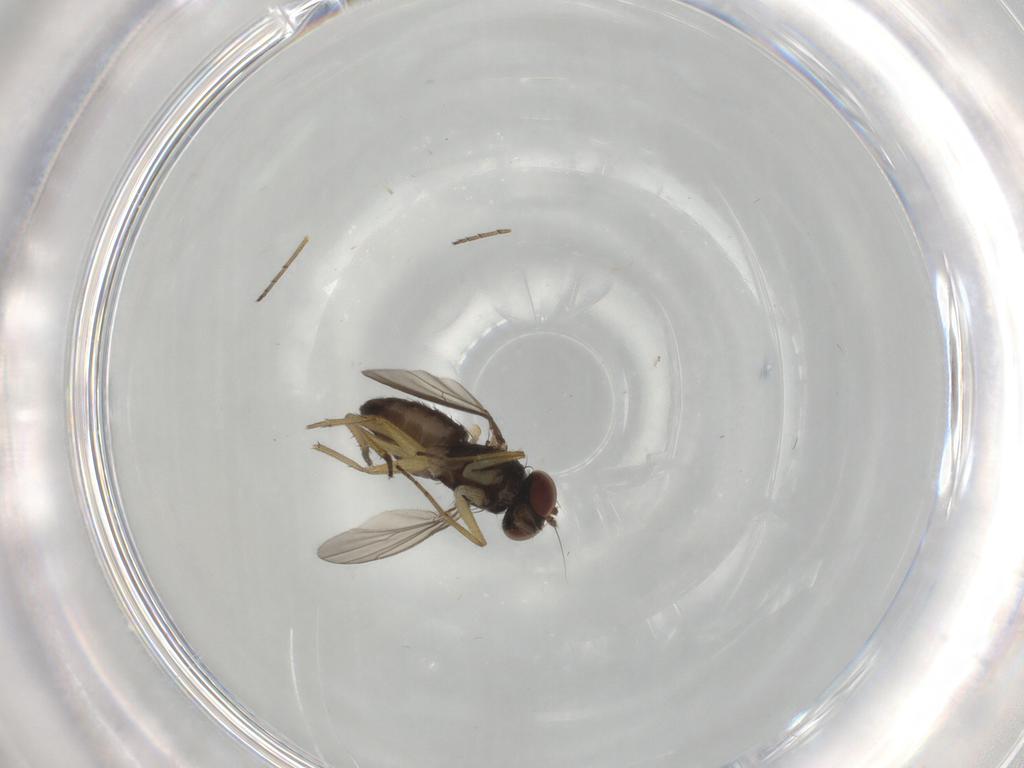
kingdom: Animalia
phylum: Arthropoda
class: Insecta
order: Diptera
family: Dolichopodidae
